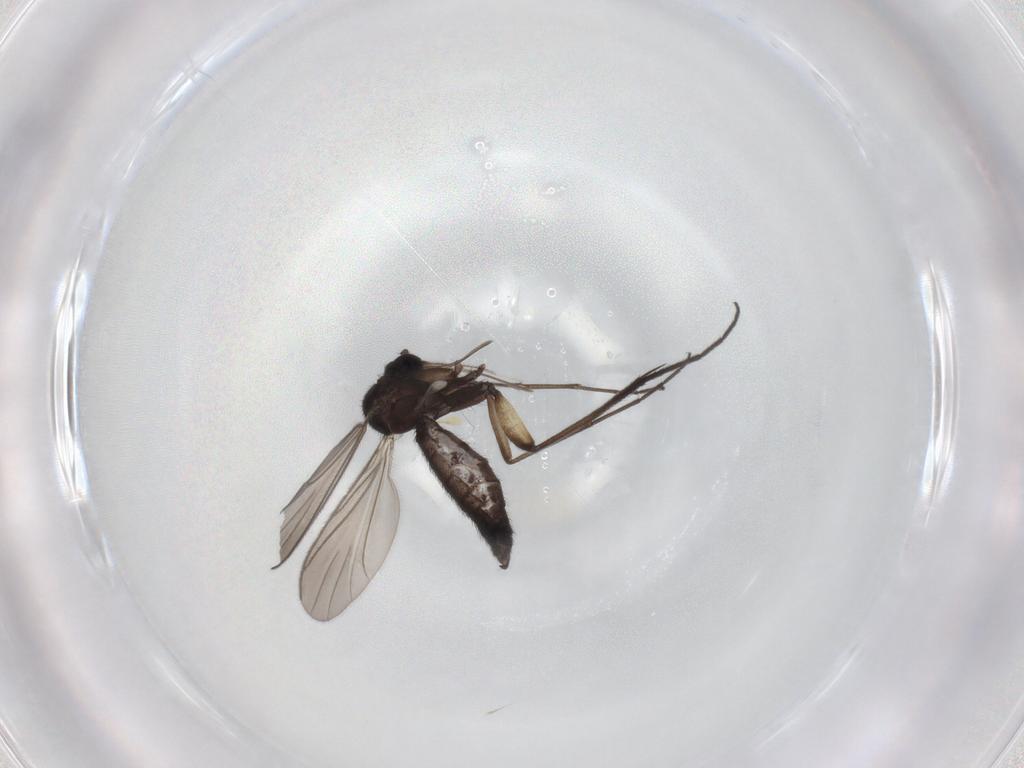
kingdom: Animalia
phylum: Arthropoda
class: Insecta
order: Diptera
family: Keroplatidae
